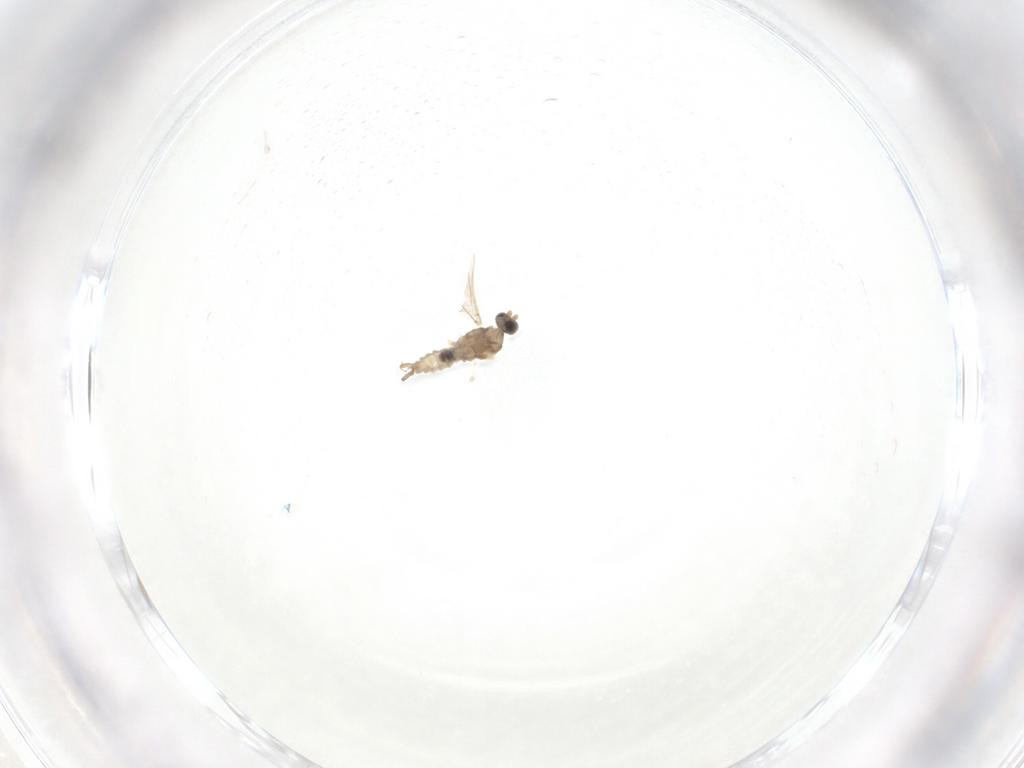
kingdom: Animalia
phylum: Arthropoda
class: Insecta
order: Diptera
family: Cecidomyiidae
